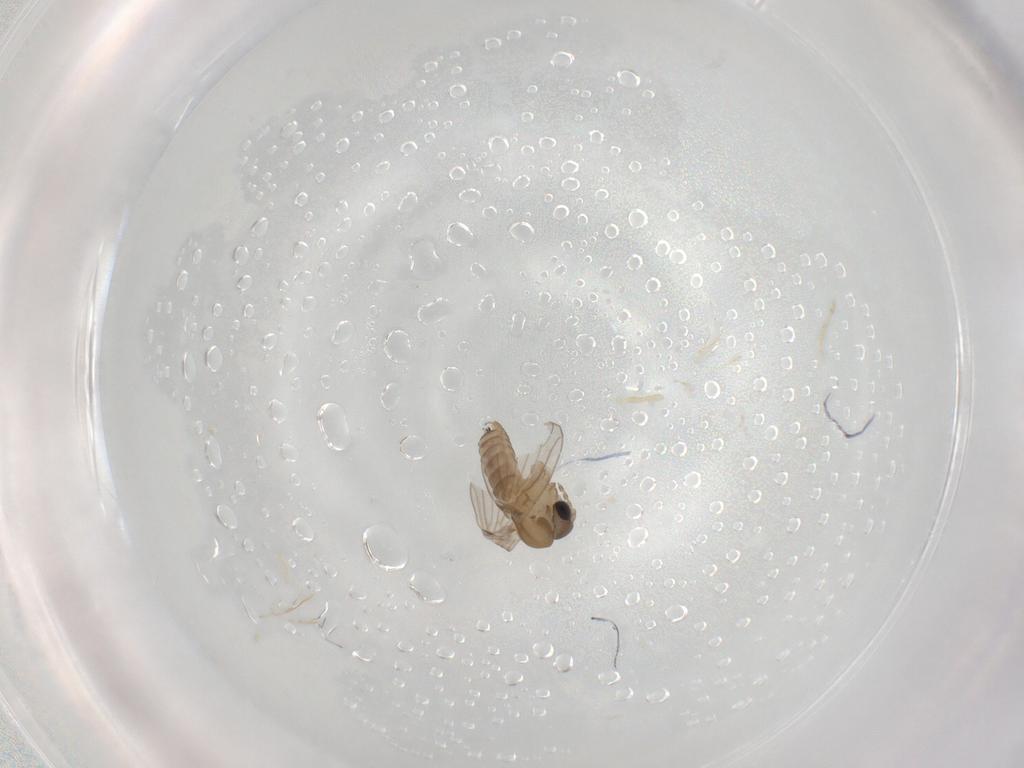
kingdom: Animalia
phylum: Arthropoda
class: Insecta
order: Diptera
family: Psychodidae
